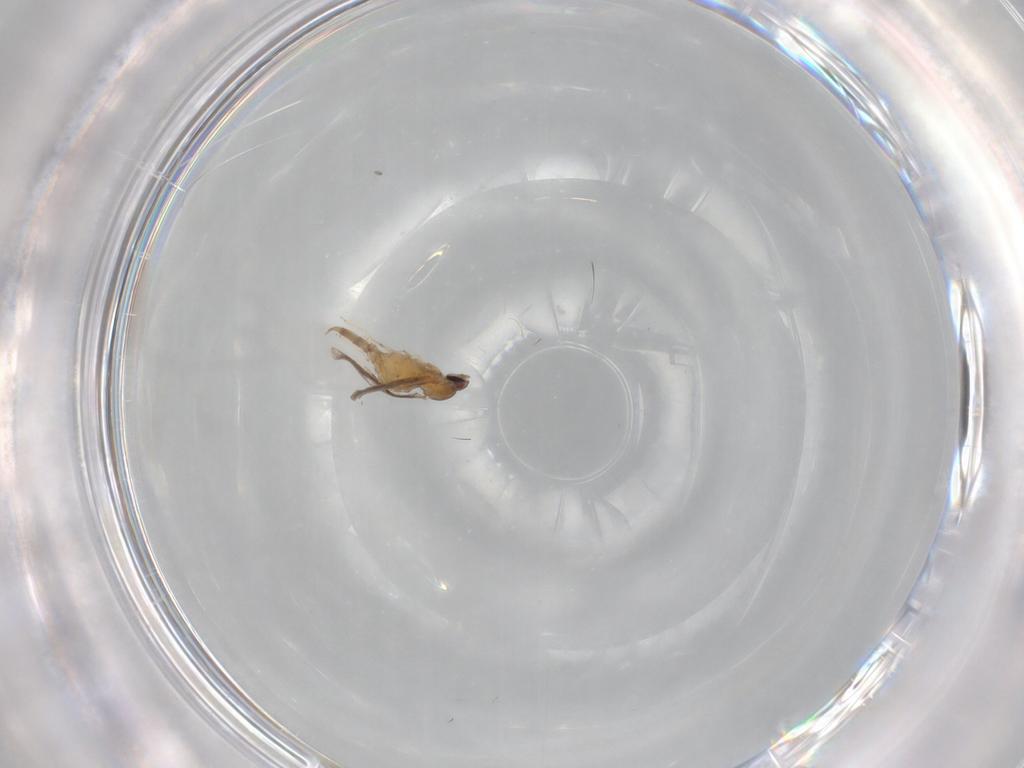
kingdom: Animalia
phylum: Arthropoda
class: Insecta
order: Diptera
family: Cecidomyiidae
